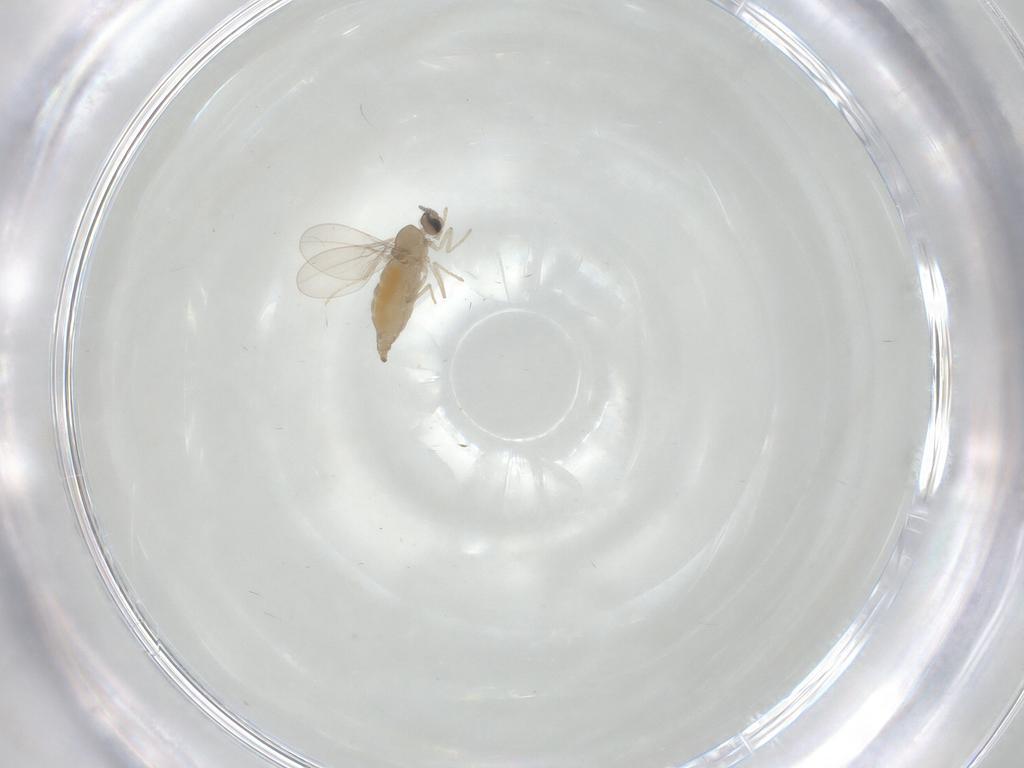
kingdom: Animalia
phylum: Arthropoda
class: Insecta
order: Diptera
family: Cecidomyiidae
